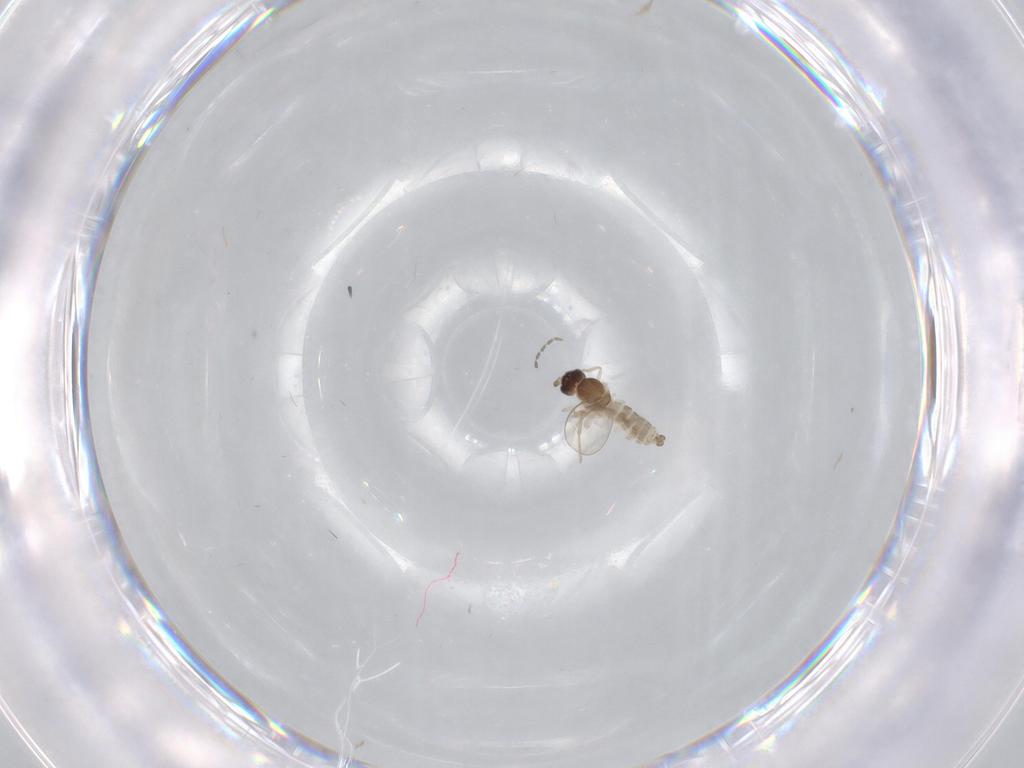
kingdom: Animalia
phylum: Arthropoda
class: Insecta
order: Diptera
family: Cecidomyiidae
